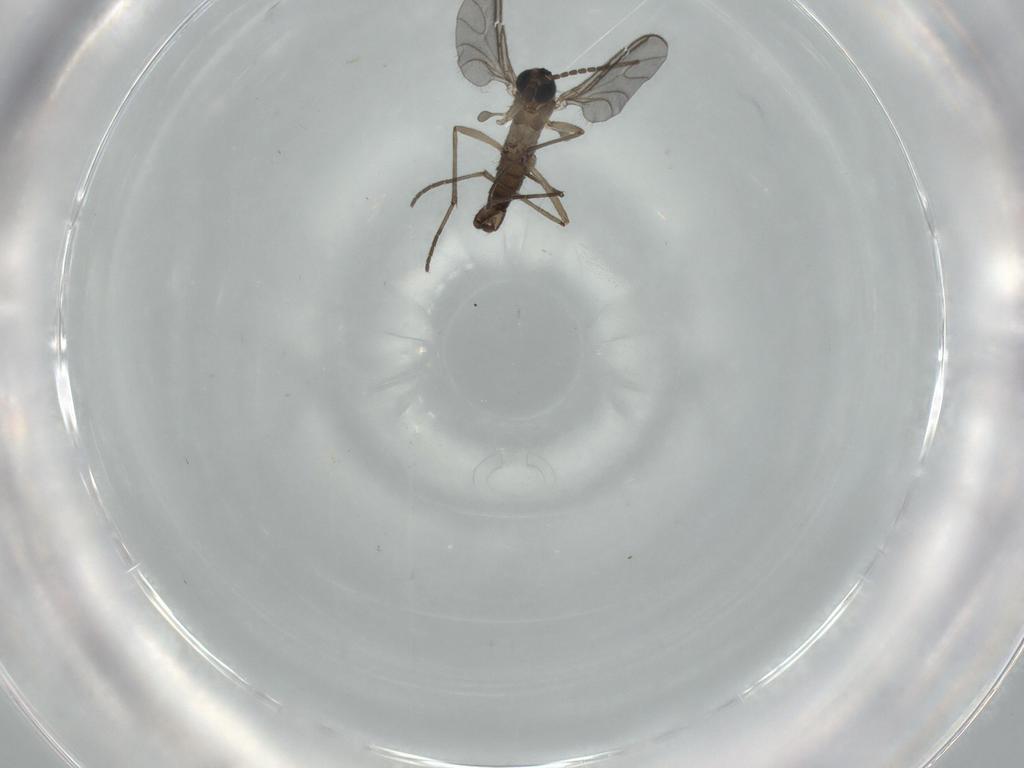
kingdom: Animalia
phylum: Arthropoda
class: Insecta
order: Diptera
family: Sciaridae
